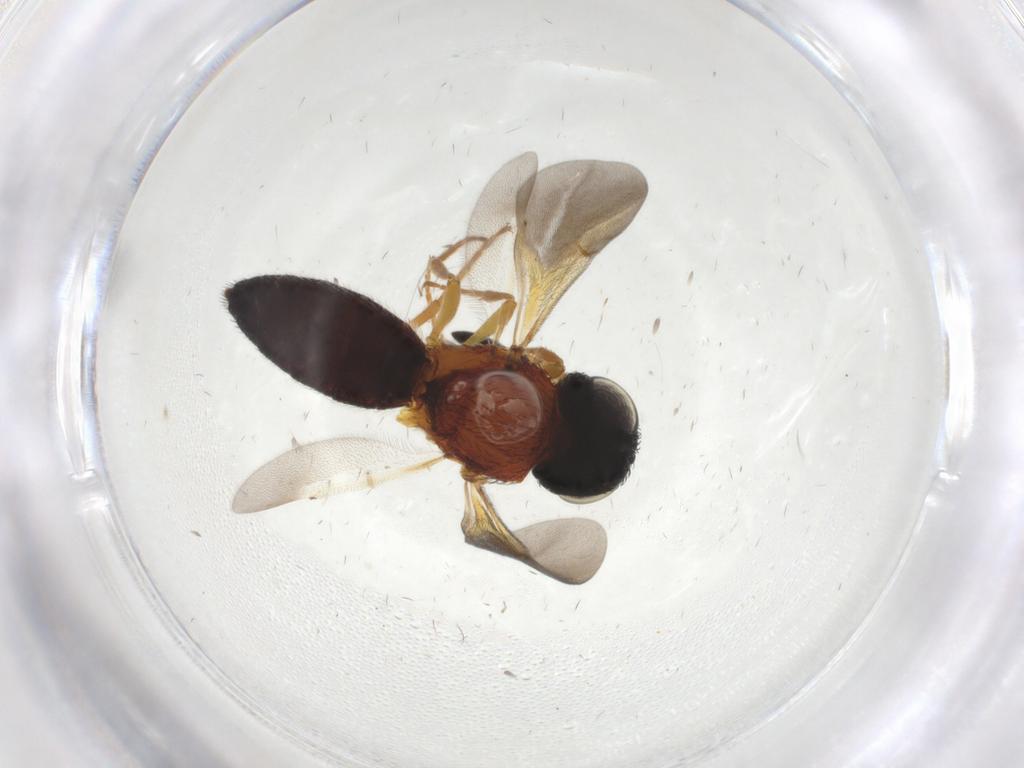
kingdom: Animalia
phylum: Arthropoda
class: Insecta
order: Hymenoptera
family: Scelionidae
